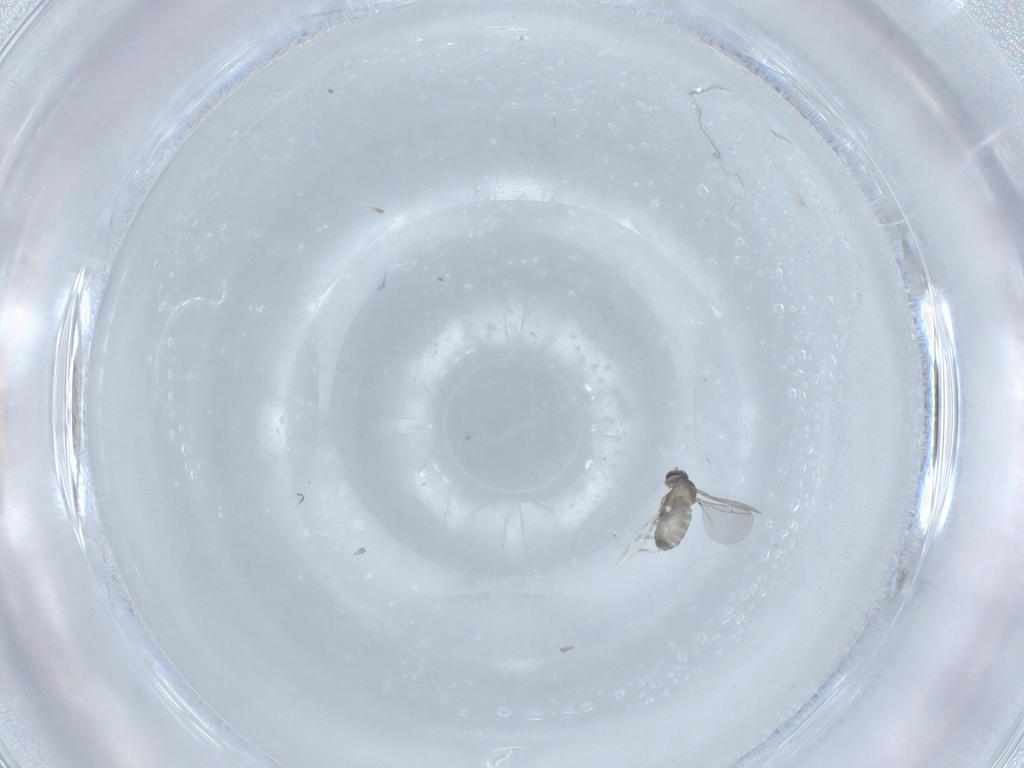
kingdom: Animalia
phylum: Arthropoda
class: Insecta
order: Diptera
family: Cecidomyiidae
